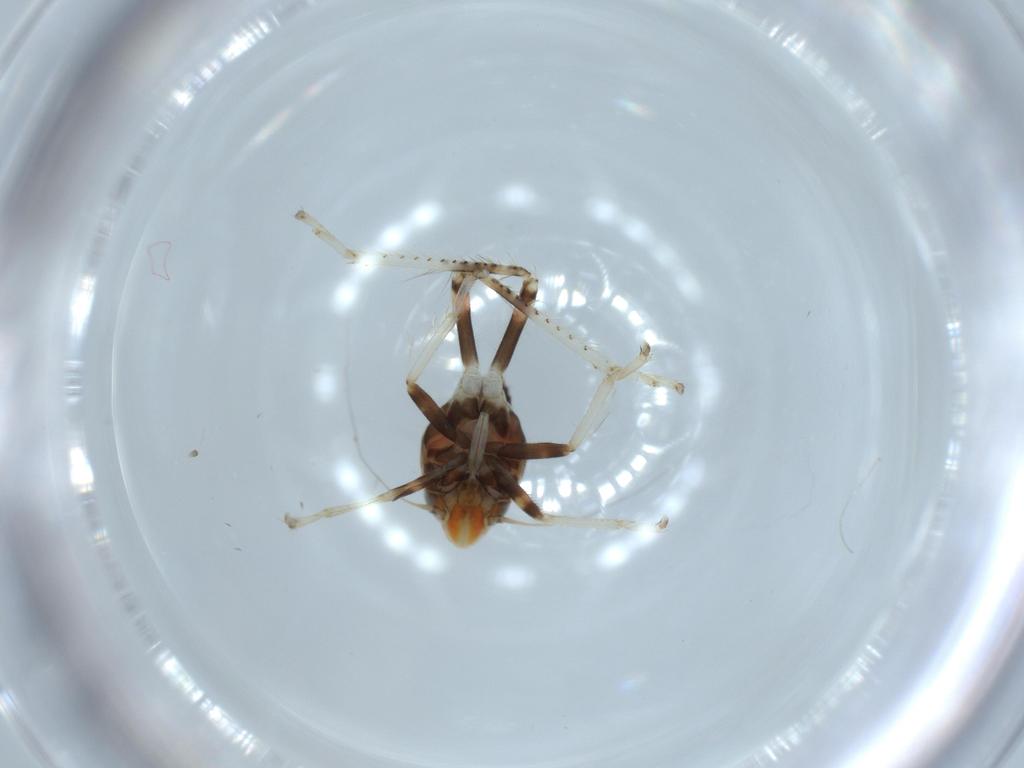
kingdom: Animalia
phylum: Arthropoda
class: Insecta
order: Hemiptera
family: Cicadellidae
